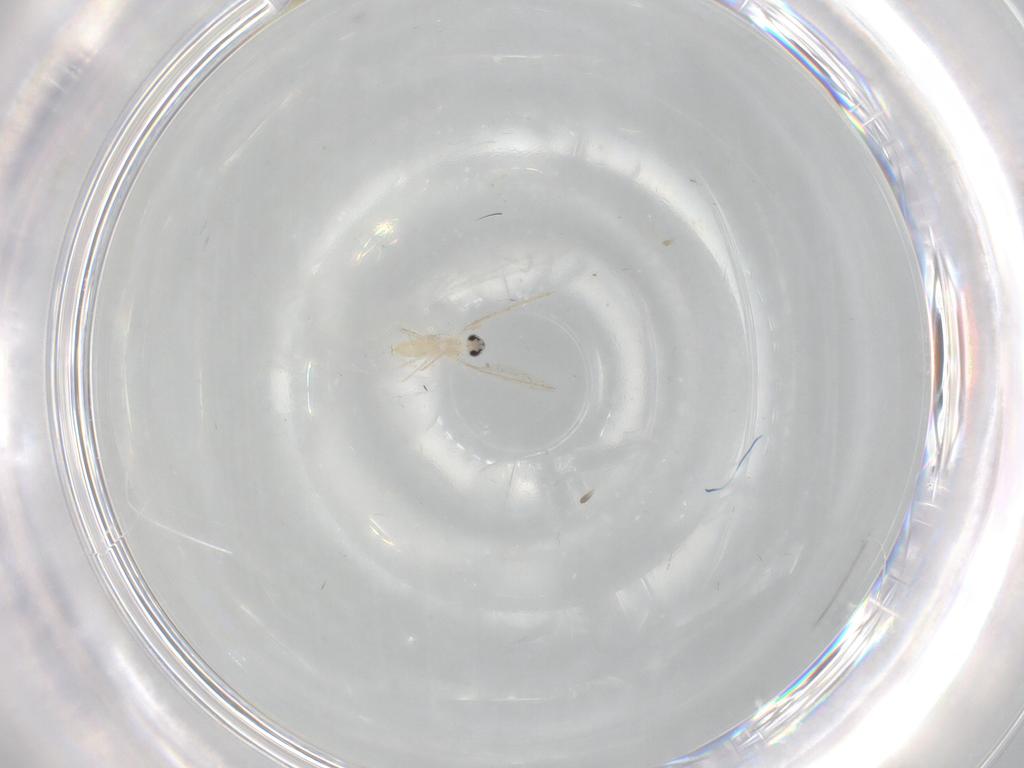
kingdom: Animalia
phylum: Arthropoda
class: Insecta
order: Diptera
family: Cecidomyiidae
